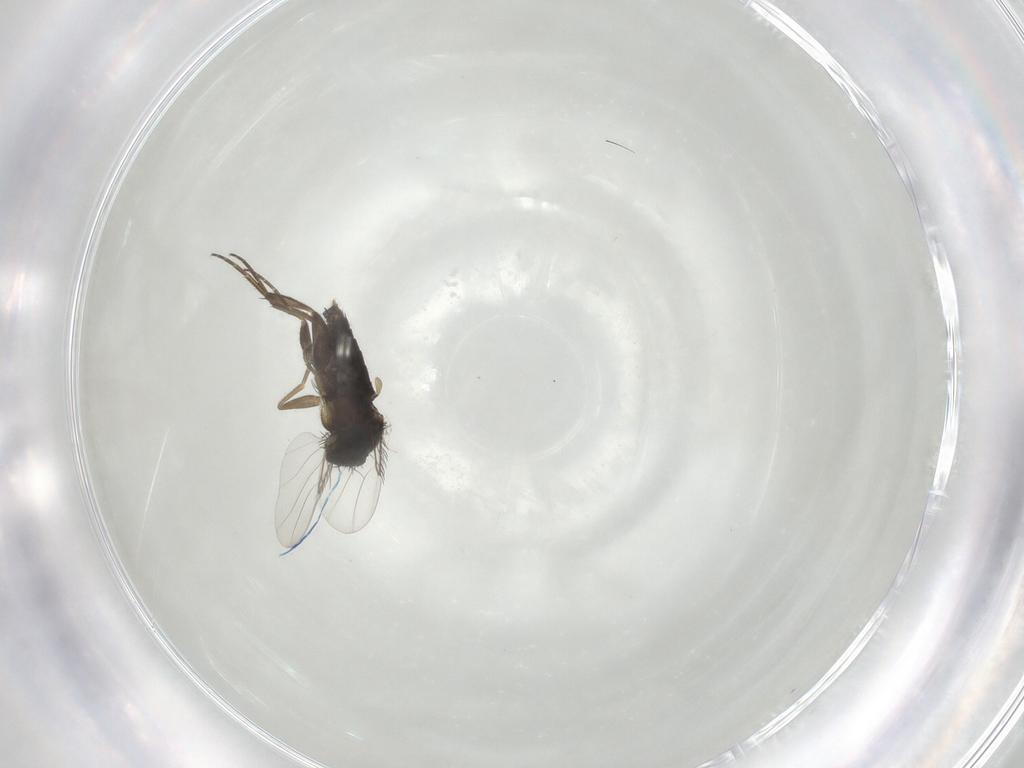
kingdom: Animalia
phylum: Arthropoda
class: Insecta
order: Diptera
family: Phoridae
